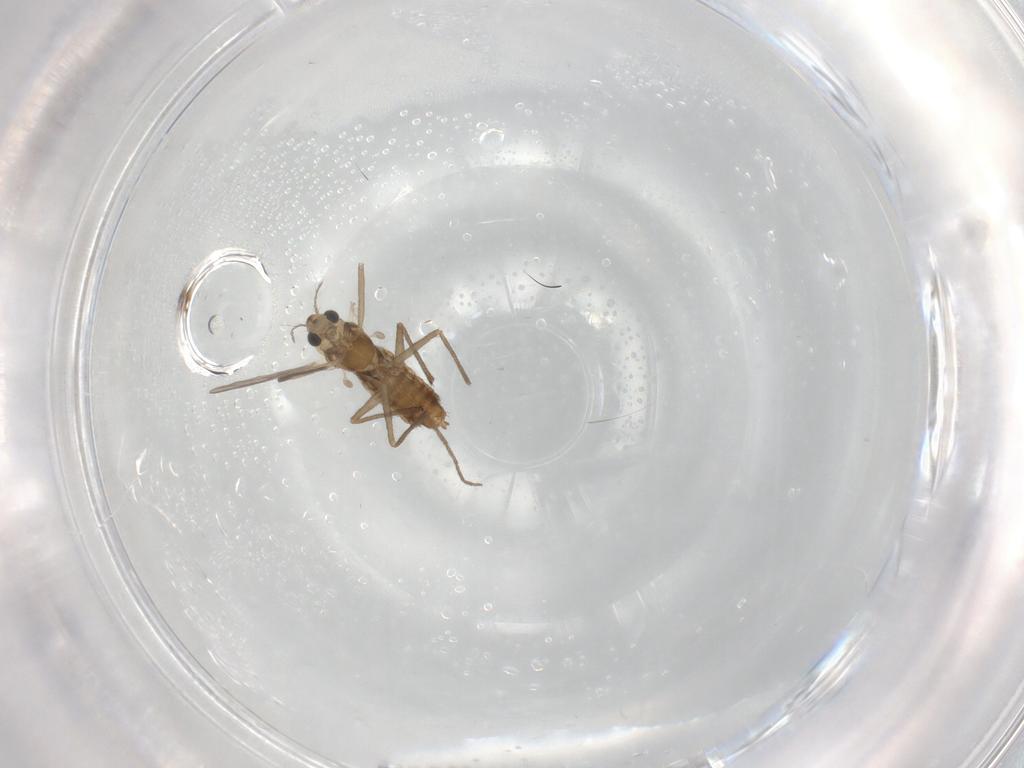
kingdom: Animalia
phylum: Arthropoda
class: Insecta
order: Diptera
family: Chironomidae
